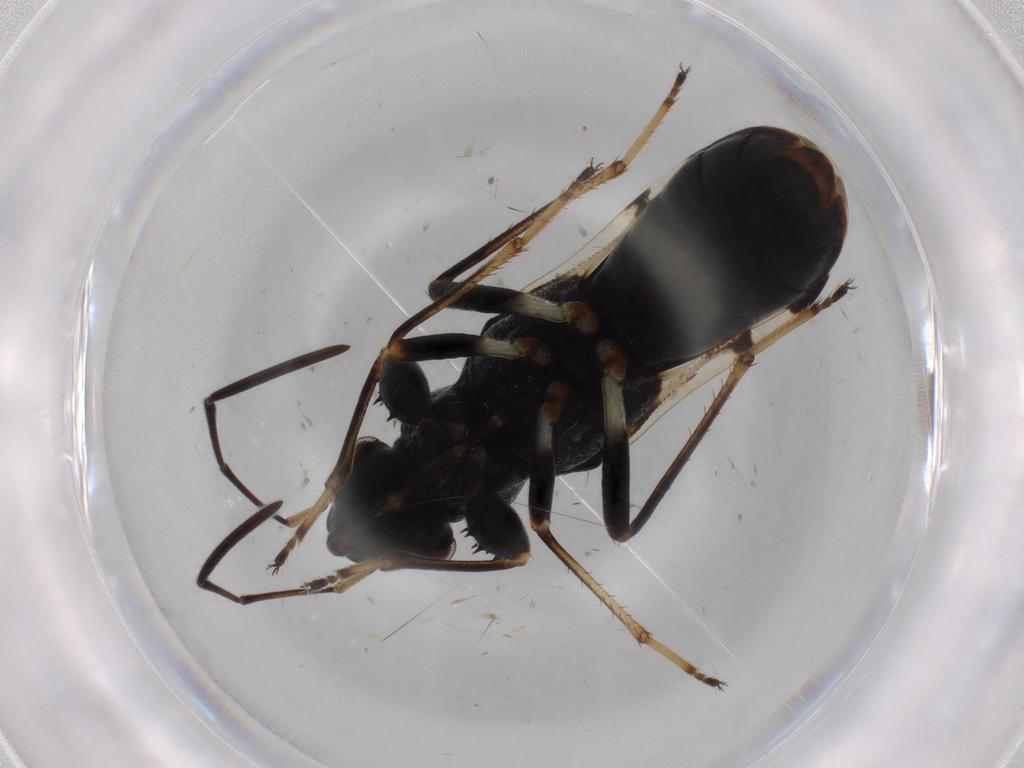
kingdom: Animalia
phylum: Arthropoda
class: Insecta
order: Hemiptera
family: Rhyparochromidae
